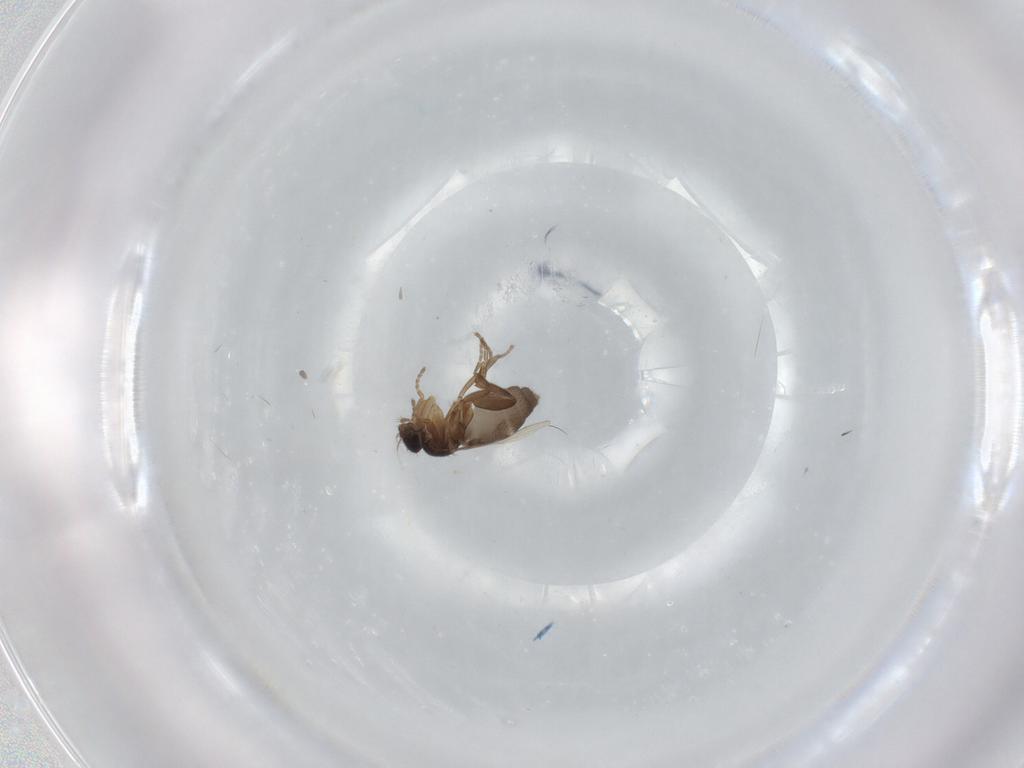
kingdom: Animalia
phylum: Arthropoda
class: Insecta
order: Diptera
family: Phoridae
